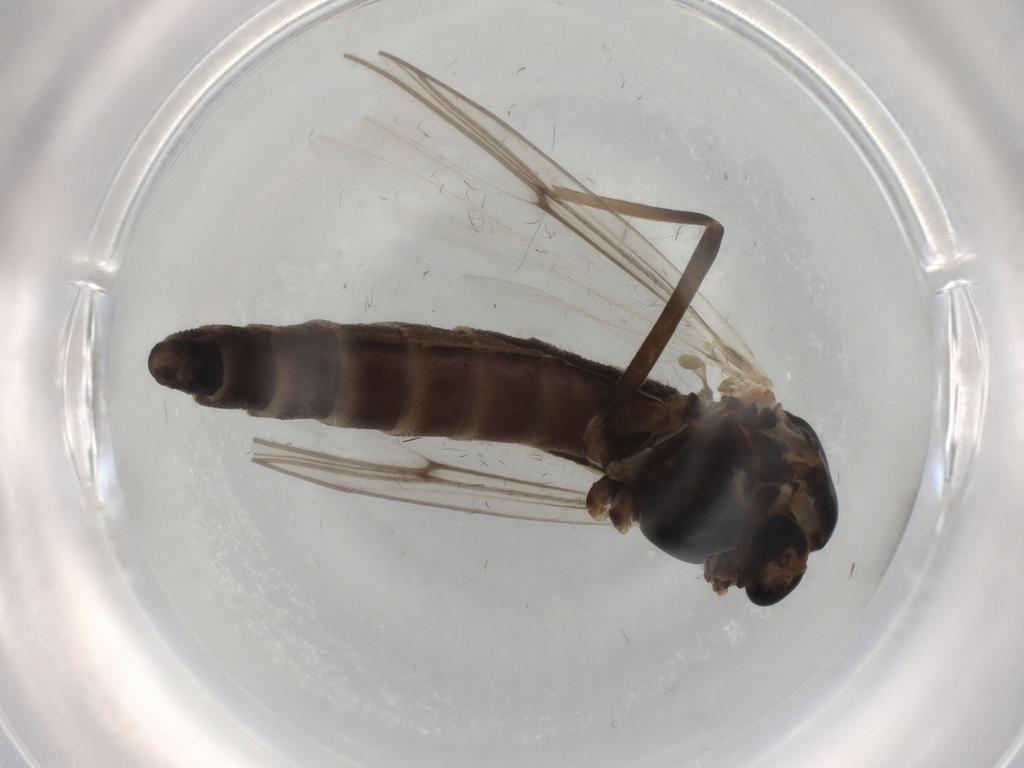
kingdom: Animalia
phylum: Arthropoda
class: Insecta
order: Diptera
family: Chironomidae
